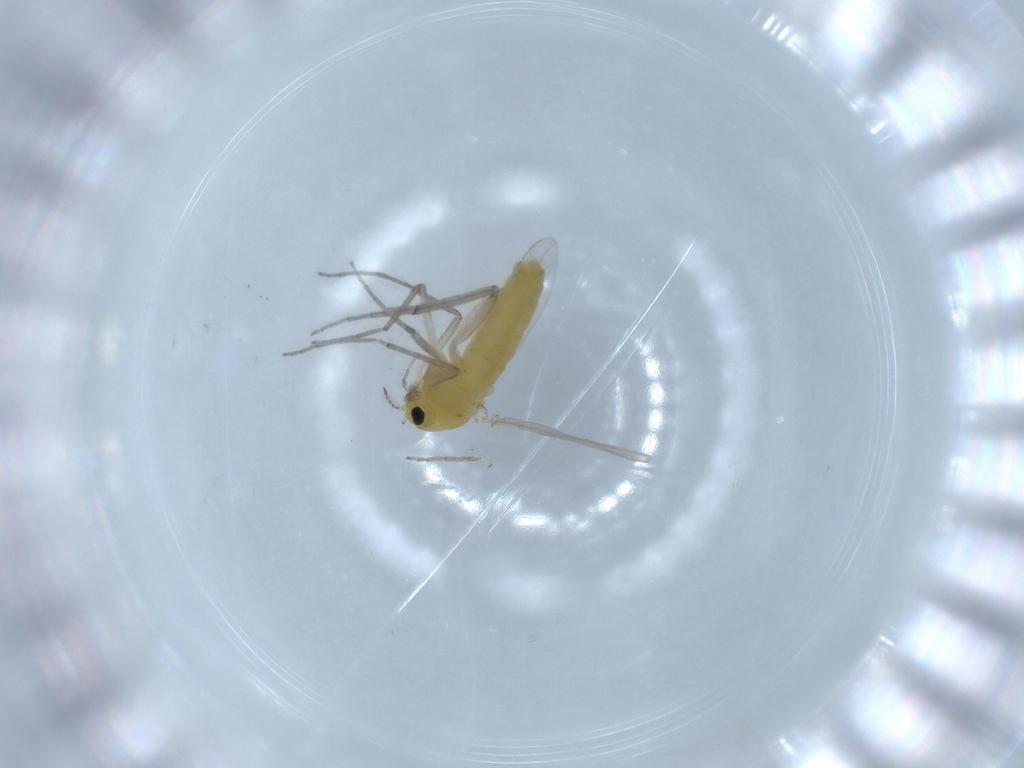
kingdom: Animalia
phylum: Arthropoda
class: Insecta
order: Diptera
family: Chironomidae
